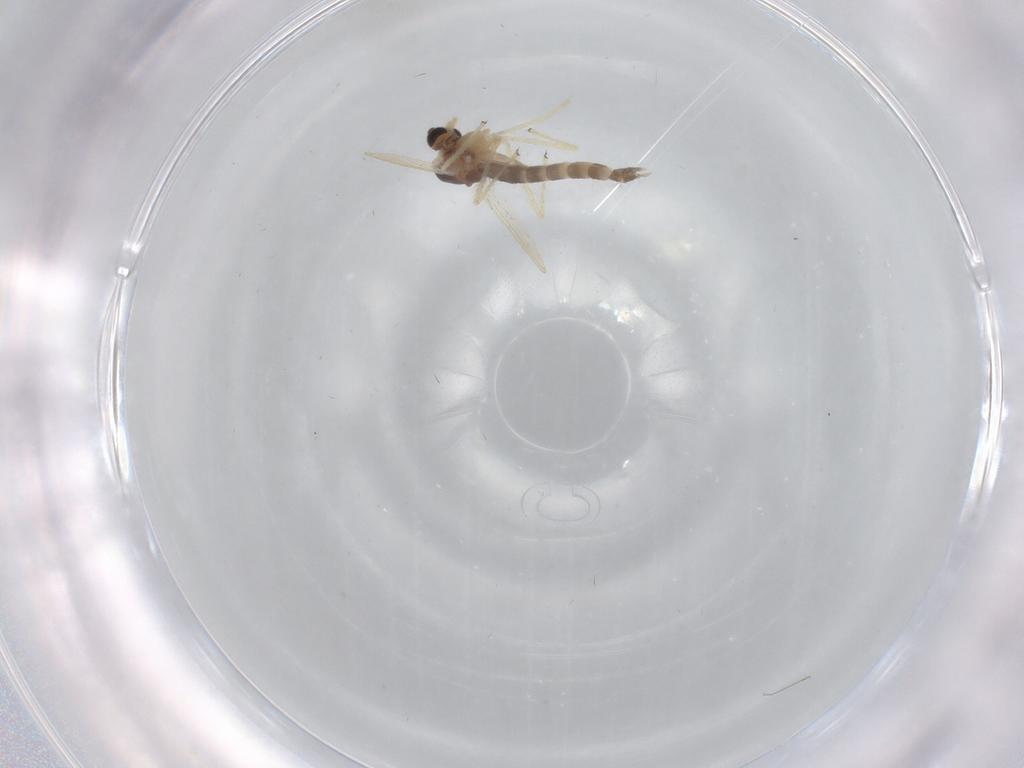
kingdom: Animalia
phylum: Arthropoda
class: Insecta
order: Diptera
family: Chironomidae
